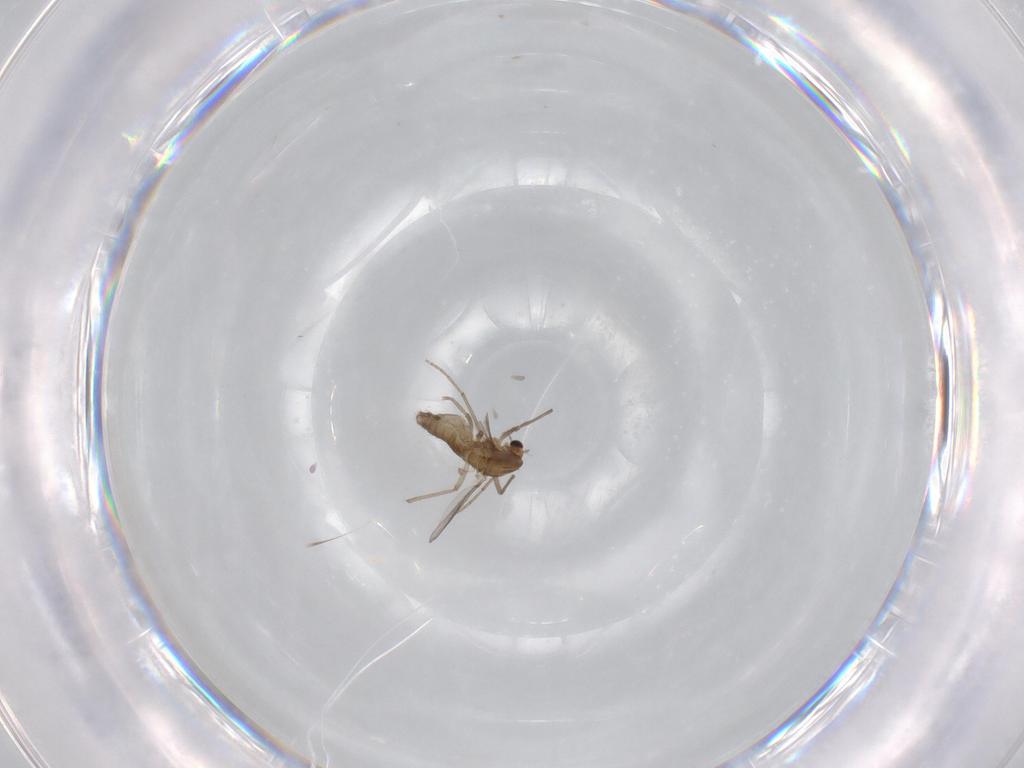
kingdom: Animalia
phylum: Arthropoda
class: Insecta
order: Diptera
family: Chironomidae
